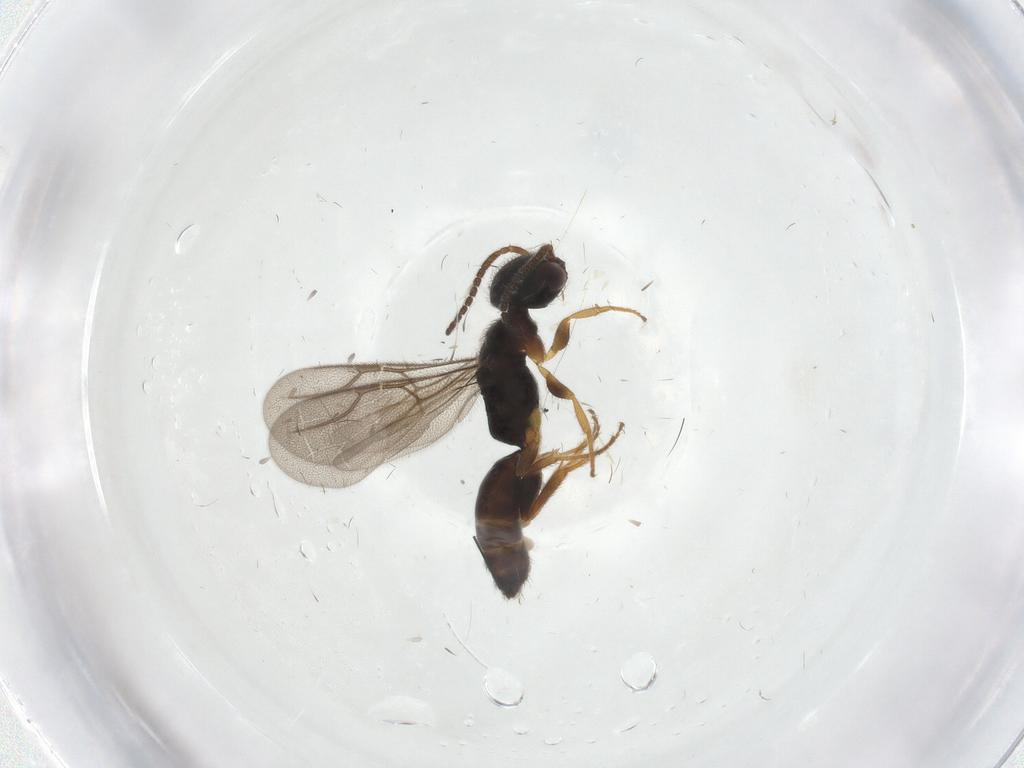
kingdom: Animalia
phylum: Arthropoda
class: Insecta
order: Hymenoptera
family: Bethylidae
